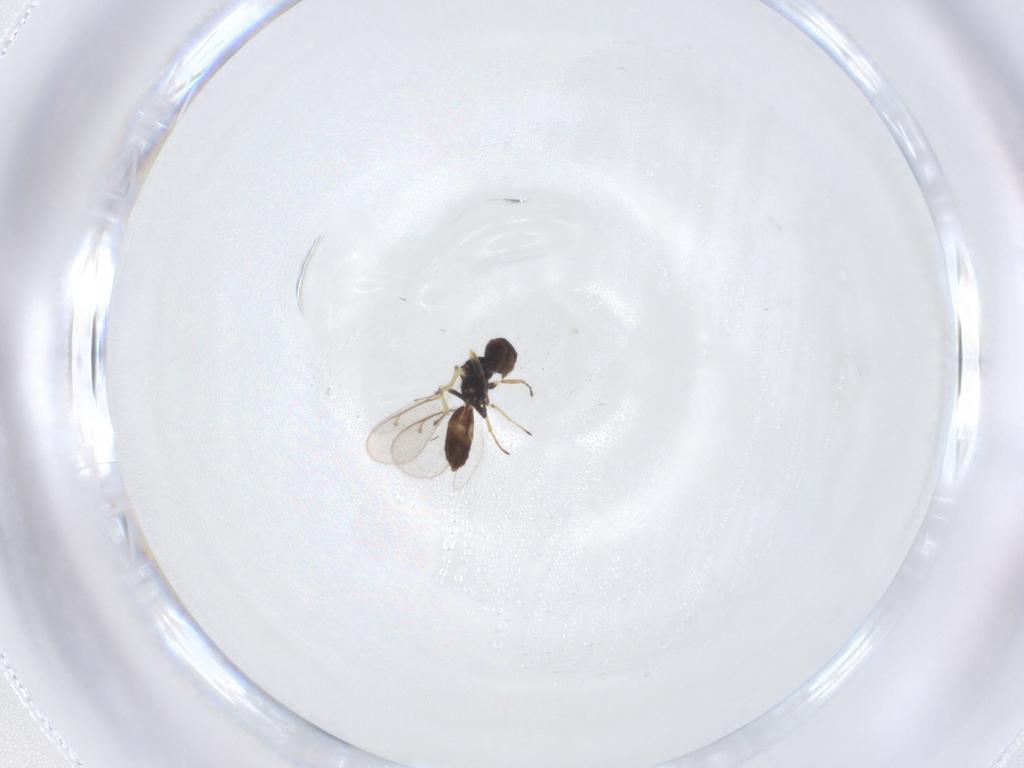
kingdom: Animalia
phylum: Arthropoda
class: Insecta
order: Hymenoptera
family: Eulophidae
